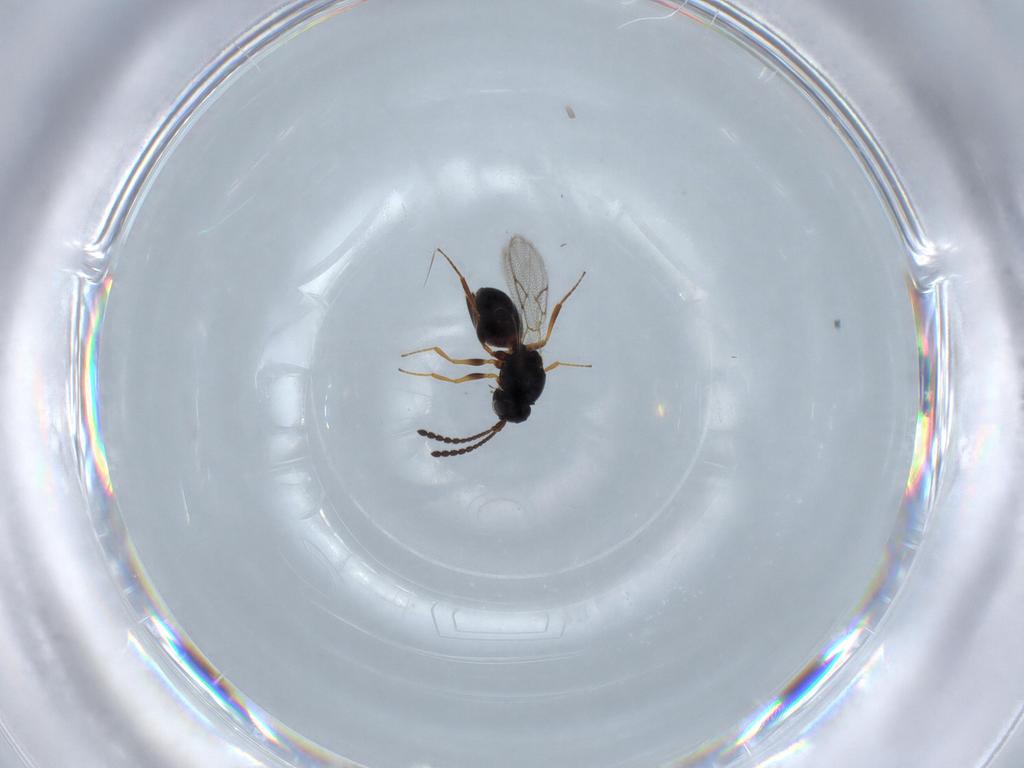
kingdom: Animalia
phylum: Arthropoda
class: Insecta
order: Hymenoptera
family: Figitidae
